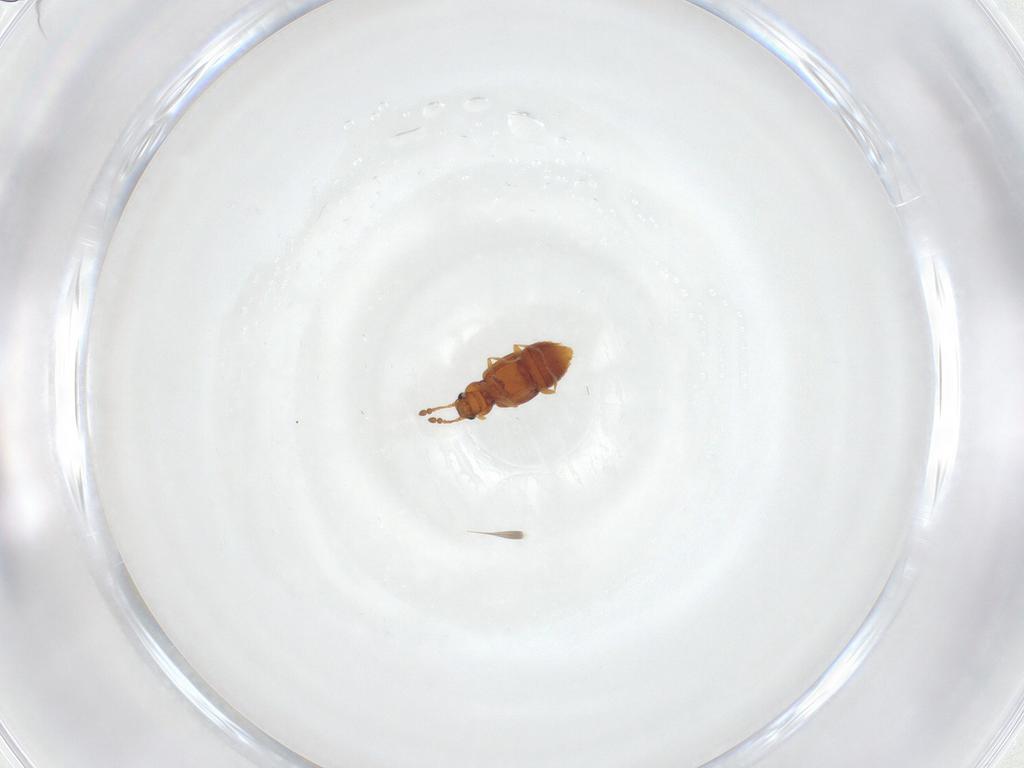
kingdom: Animalia
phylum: Arthropoda
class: Insecta
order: Coleoptera
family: Staphylinidae
